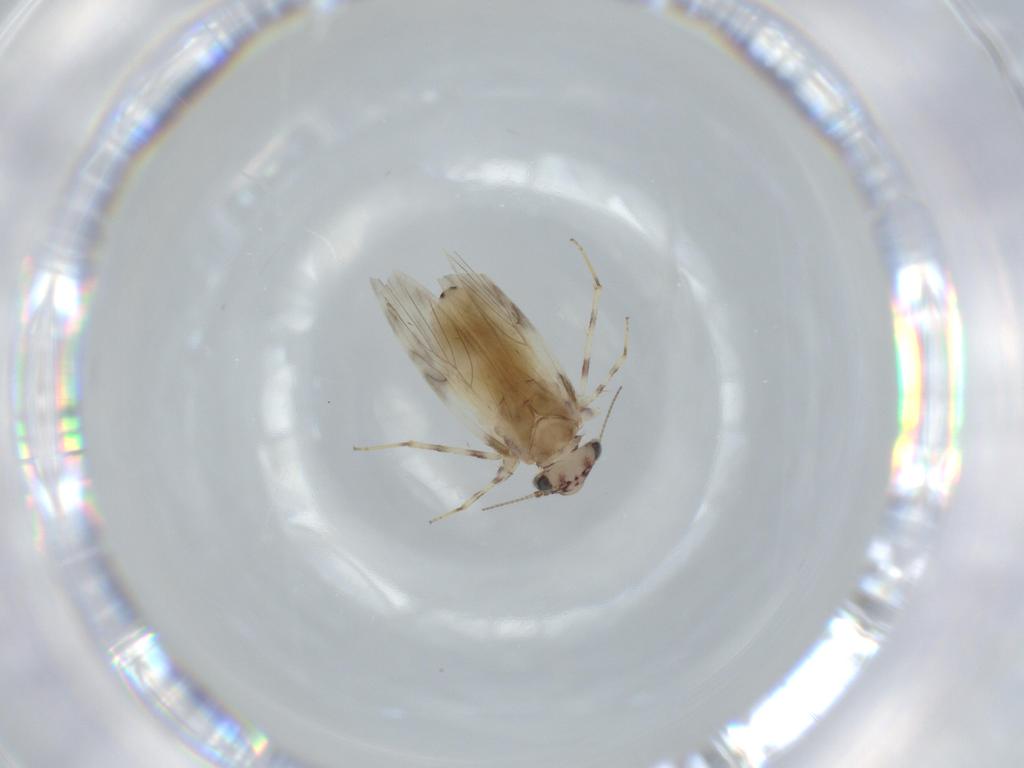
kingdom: Animalia
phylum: Arthropoda
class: Insecta
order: Psocodea
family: Lepidopsocidae
